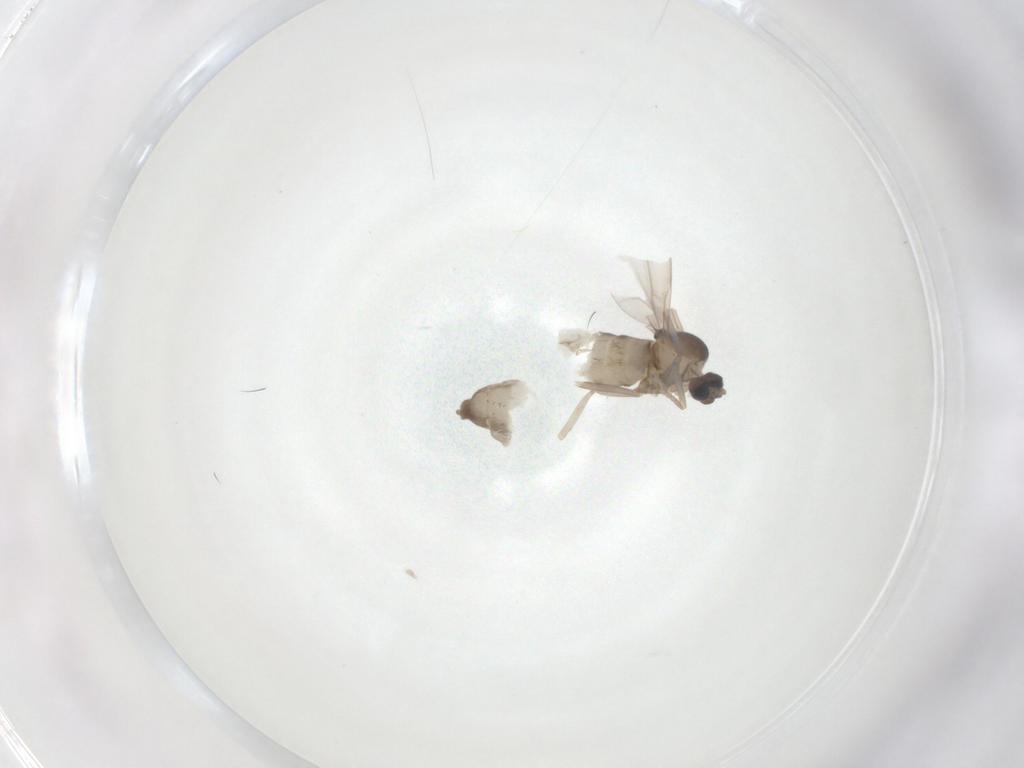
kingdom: Animalia
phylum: Arthropoda
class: Insecta
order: Diptera
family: Cecidomyiidae
